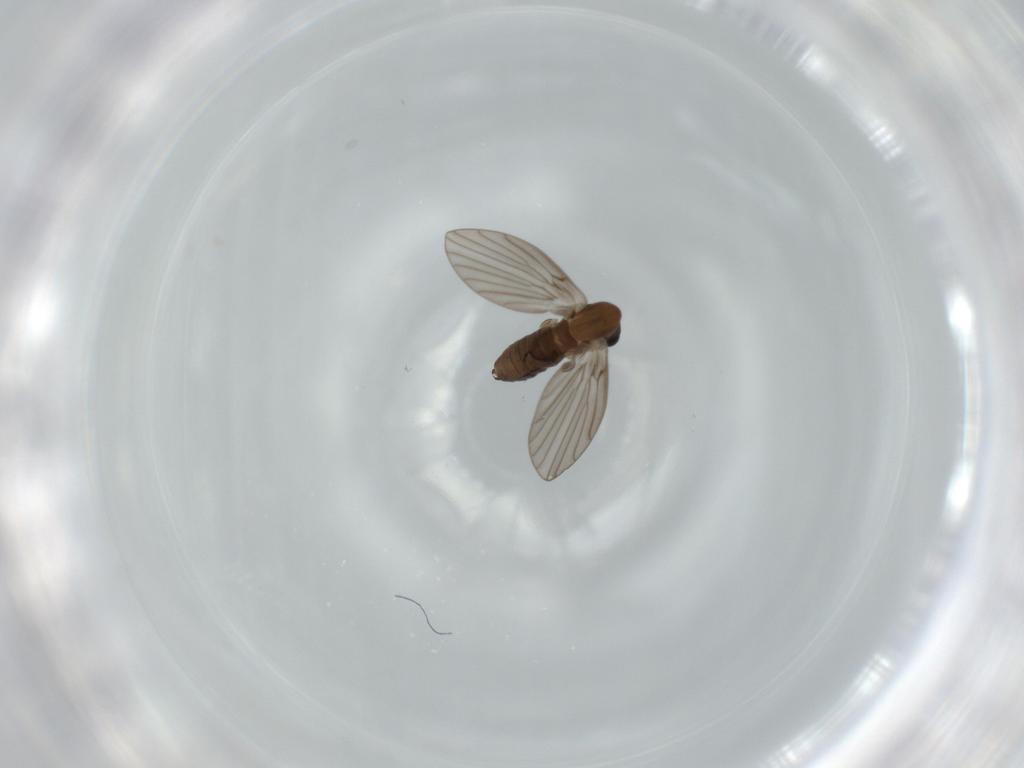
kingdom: Animalia
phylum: Arthropoda
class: Insecta
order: Diptera
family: Psychodidae
